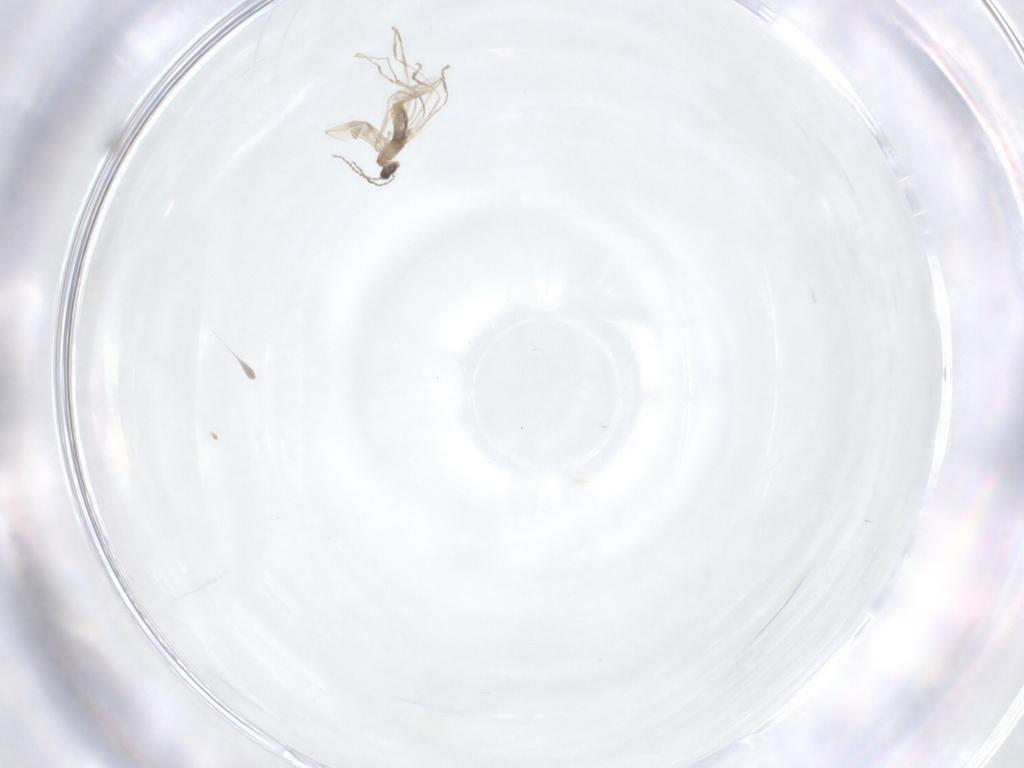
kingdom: Animalia
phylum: Arthropoda
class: Insecta
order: Diptera
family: Cecidomyiidae
